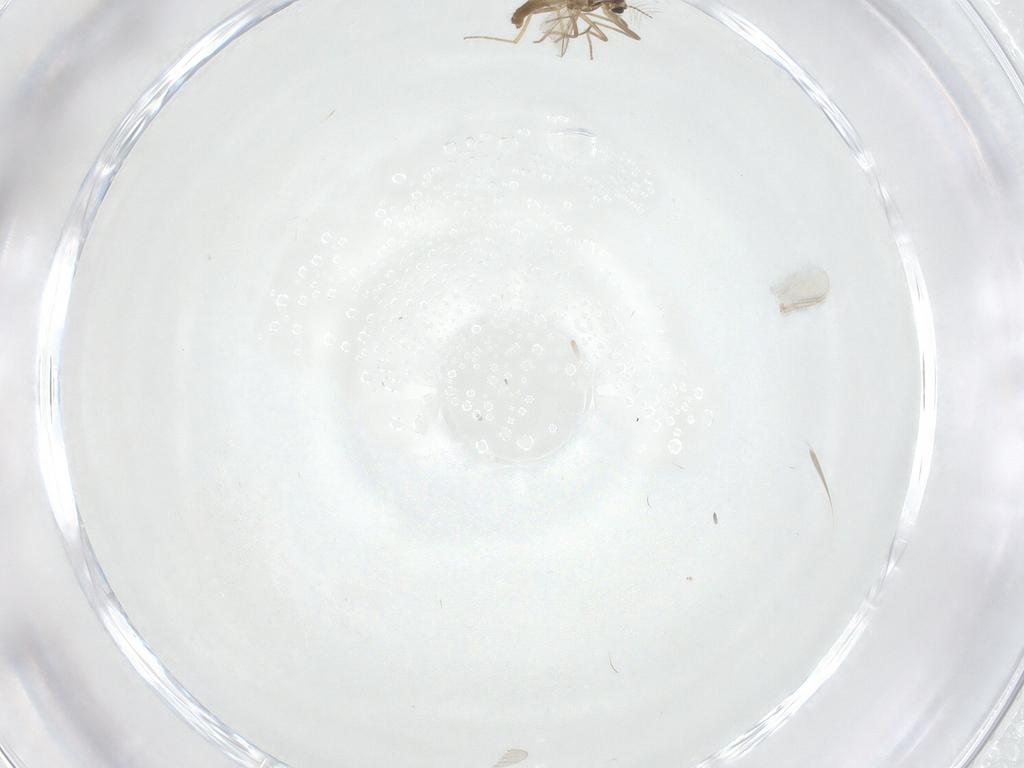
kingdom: Animalia
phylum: Arthropoda
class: Insecta
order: Diptera
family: Chironomidae
